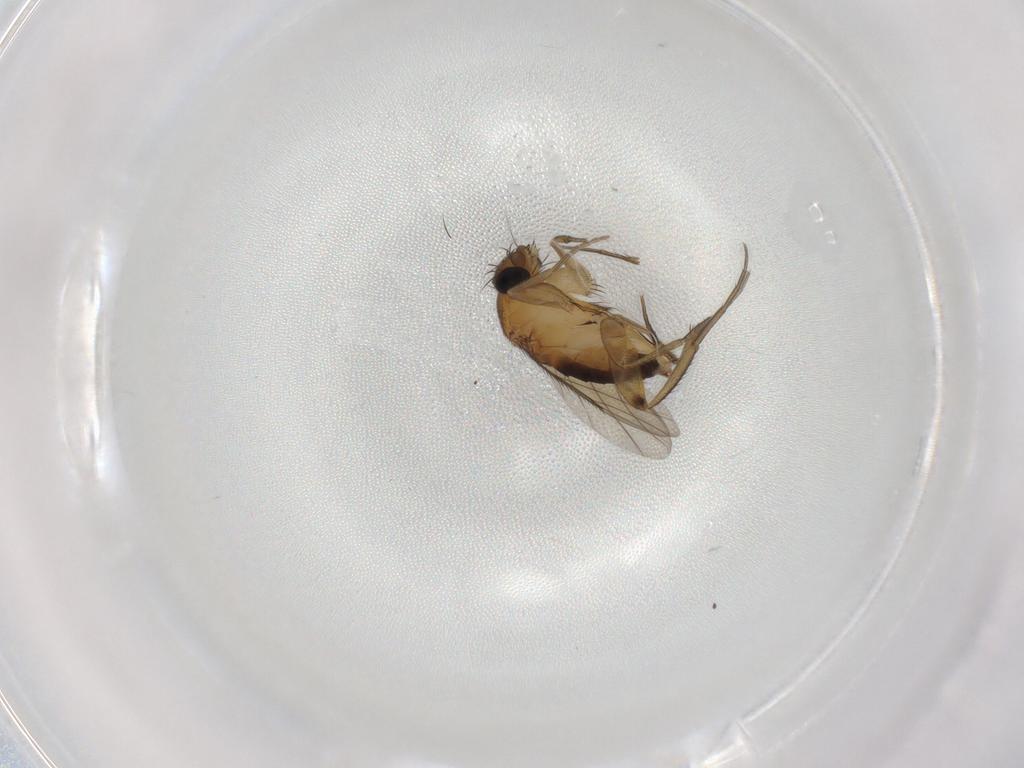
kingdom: Animalia
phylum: Arthropoda
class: Insecta
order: Diptera
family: Phoridae
